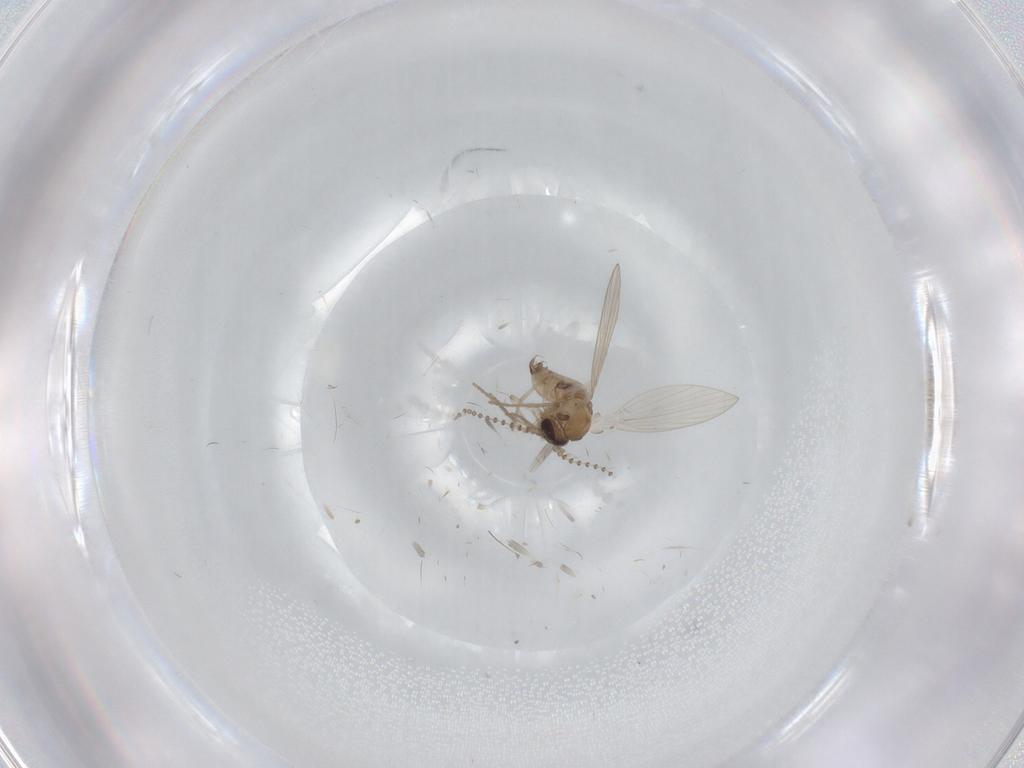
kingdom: Animalia
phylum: Arthropoda
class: Insecta
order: Diptera
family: Psychodidae
